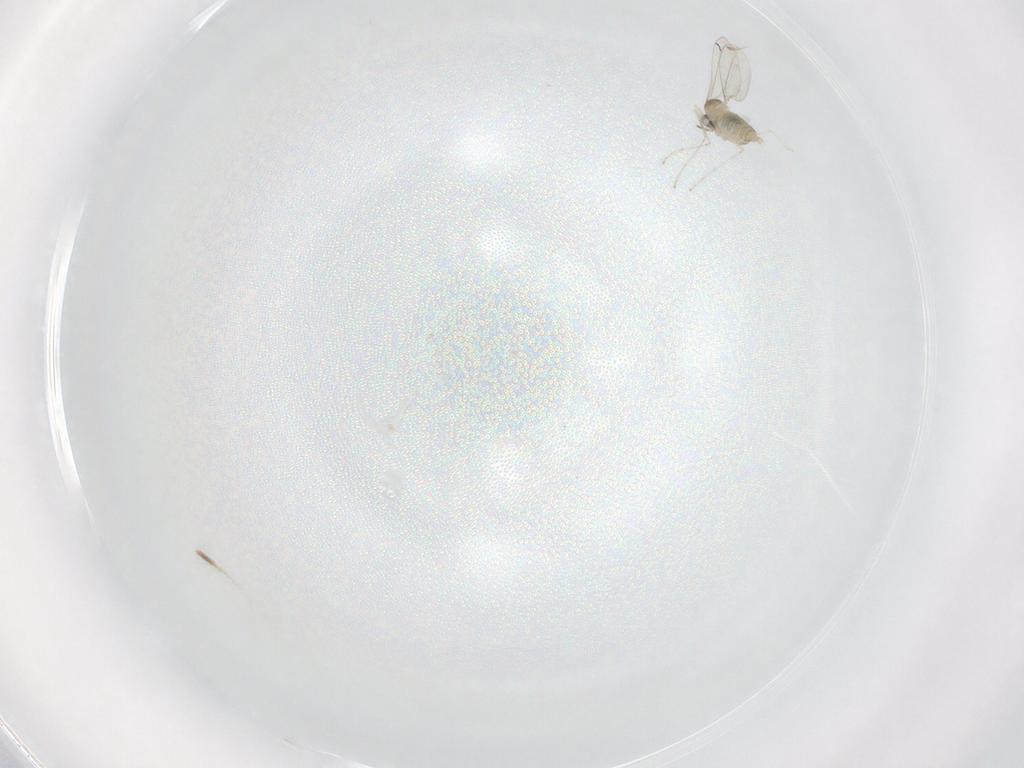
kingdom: Animalia
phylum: Arthropoda
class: Insecta
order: Diptera
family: Cecidomyiidae
